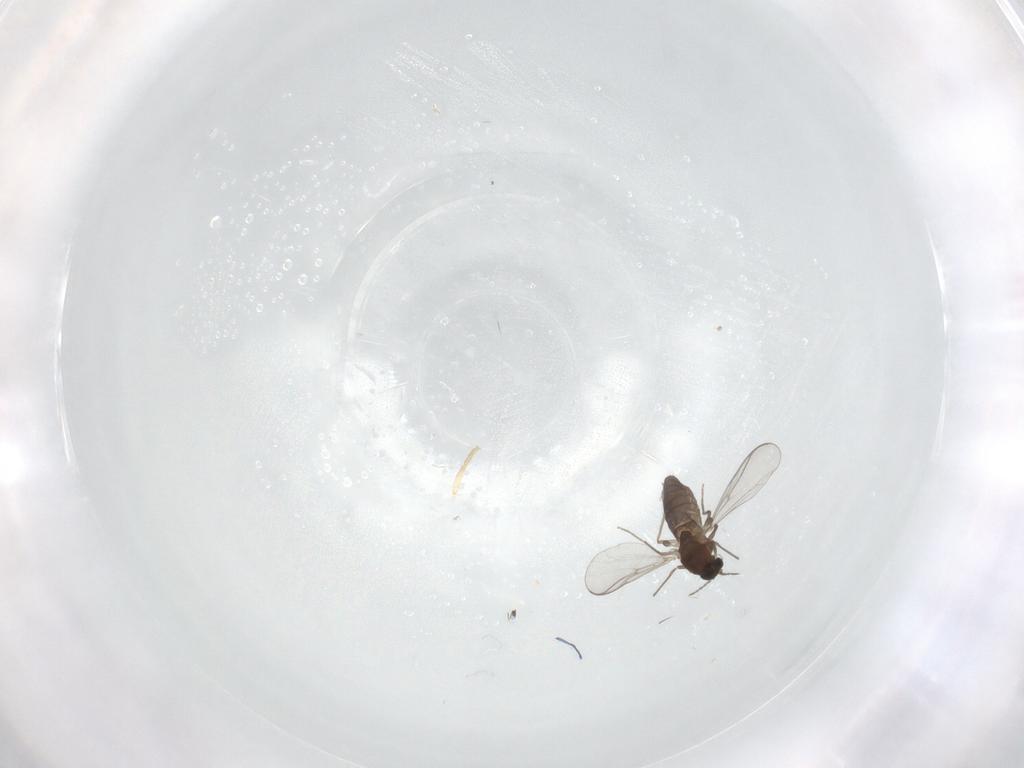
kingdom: Animalia
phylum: Arthropoda
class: Insecta
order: Diptera
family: Chironomidae
